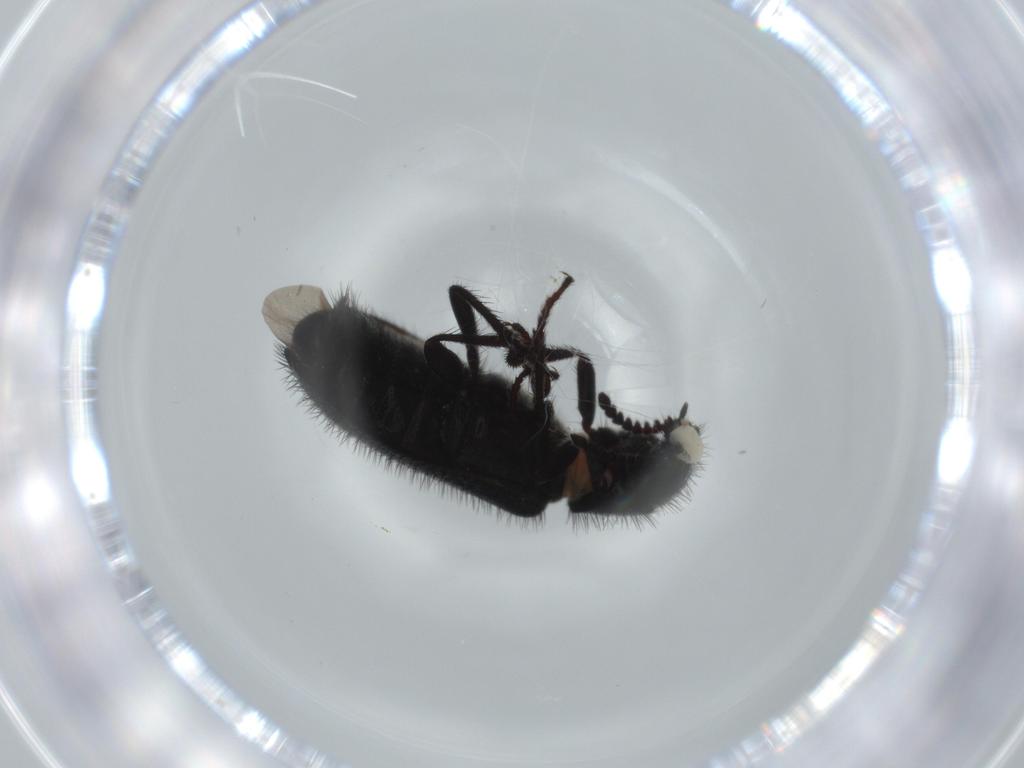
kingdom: Animalia
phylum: Arthropoda
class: Insecta
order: Coleoptera
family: Melyridae
